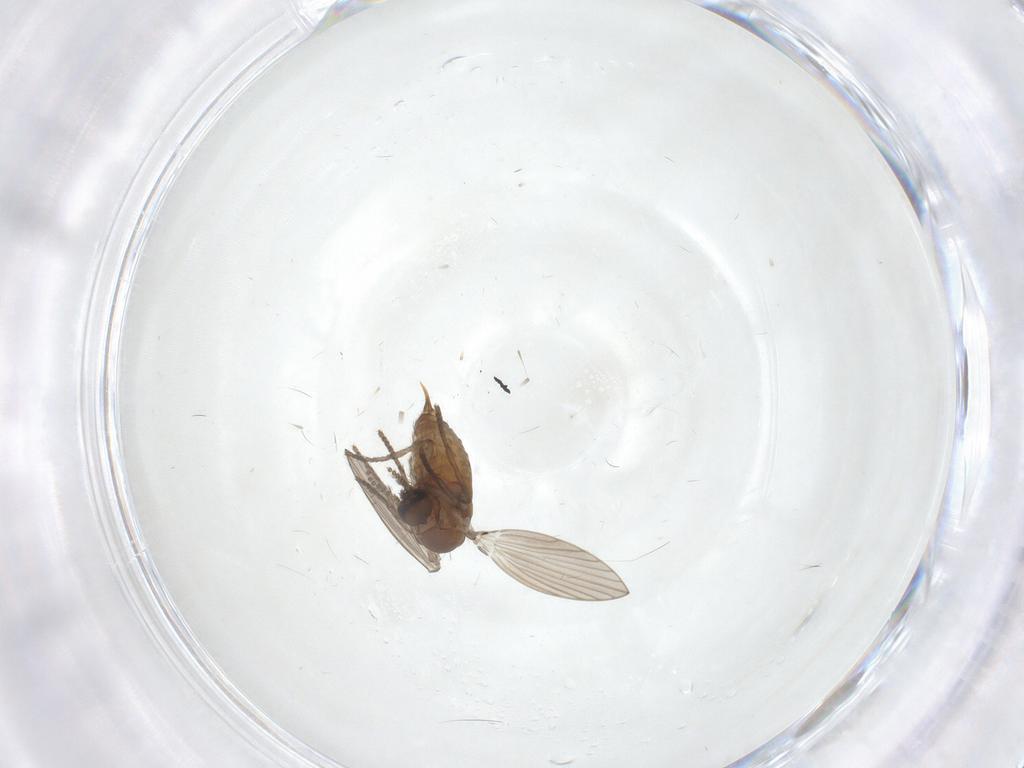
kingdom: Animalia
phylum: Arthropoda
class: Insecta
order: Diptera
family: Psychodidae
